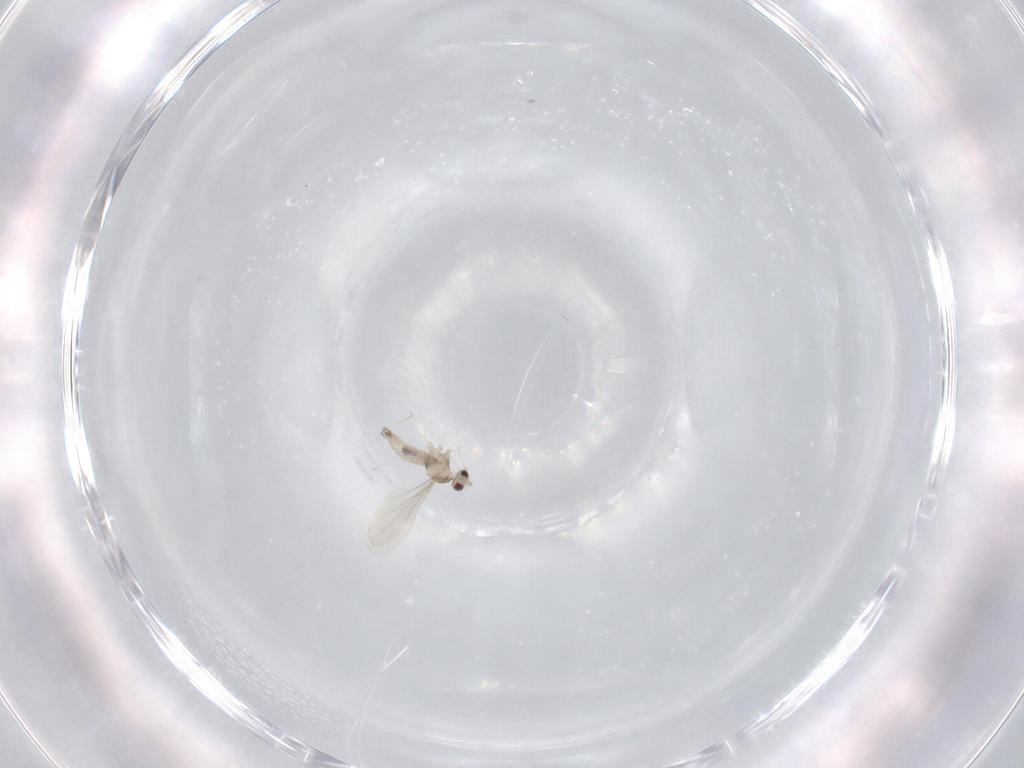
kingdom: Animalia
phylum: Arthropoda
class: Insecta
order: Diptera
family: Cecidomyiidae
